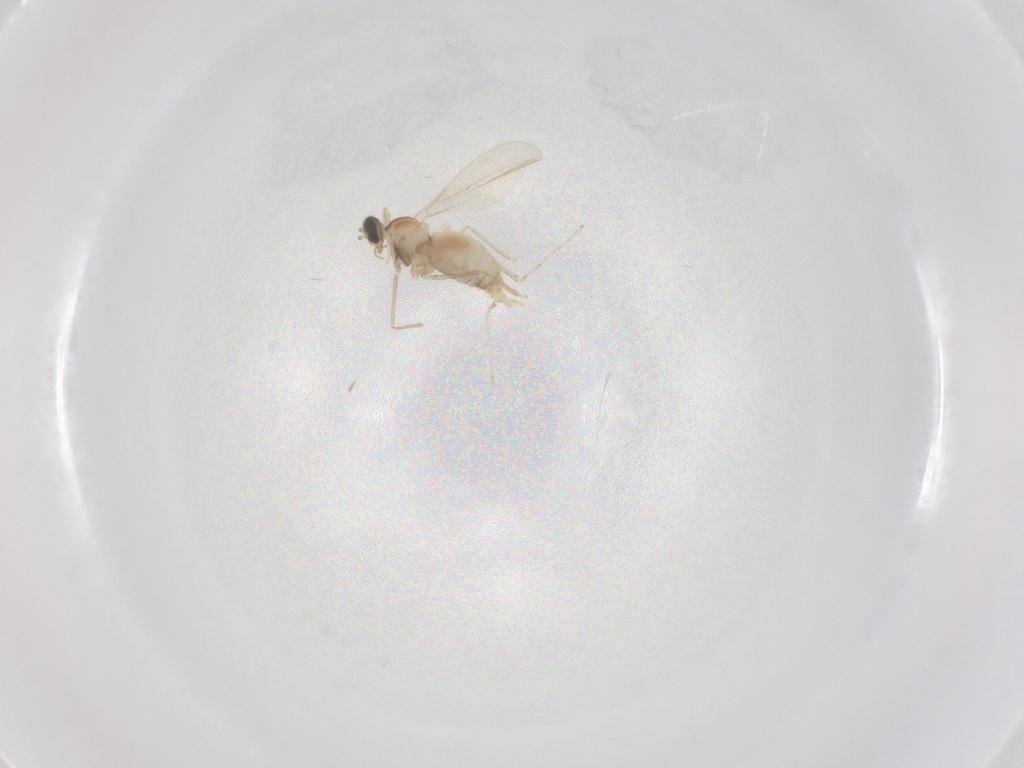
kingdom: Animalia
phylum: Arthropoda
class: Insecta
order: Diptera
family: Cecidomyiidae
